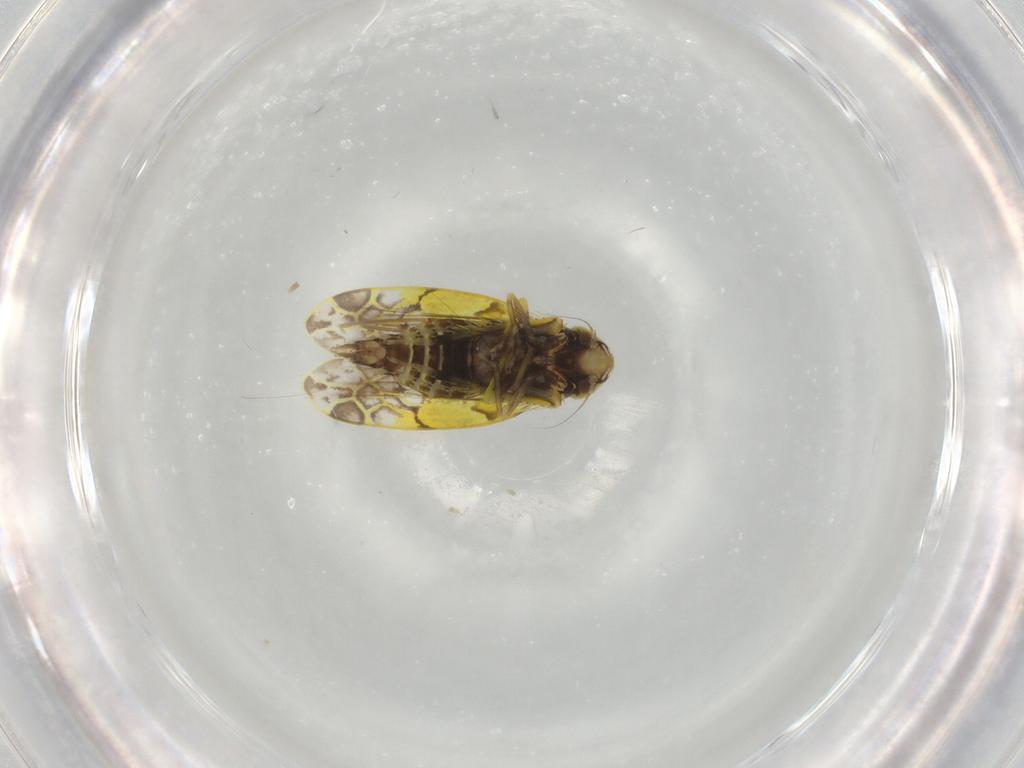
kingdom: Animalia
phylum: Arthropoda
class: Insecta
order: Hemiptera
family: Cicadellidae
